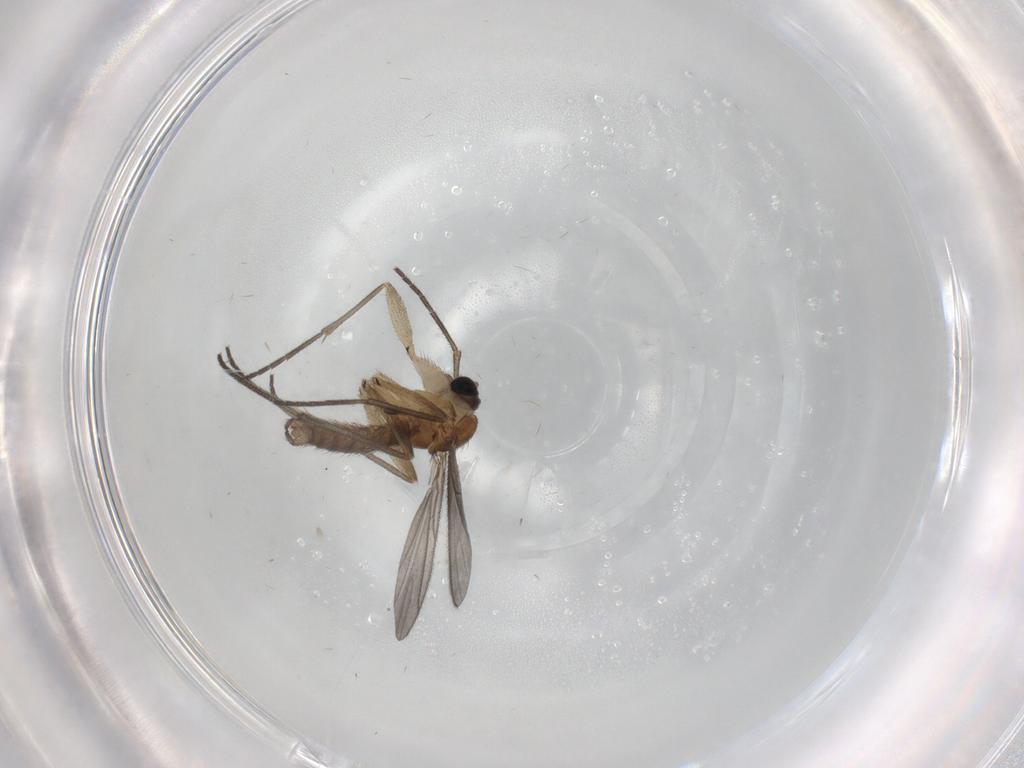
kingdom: Animalia
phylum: Arthropoda
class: Insecta
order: Diptera
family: Sciaridae
